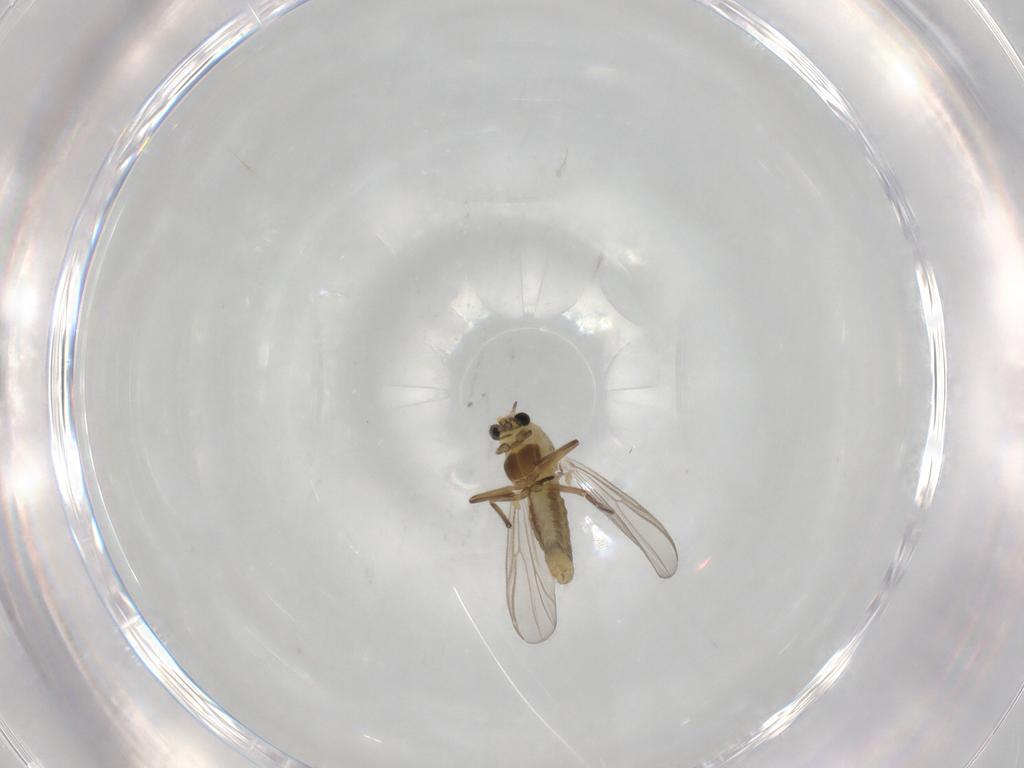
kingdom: Animalia
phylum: Arthropoda
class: Insecta
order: Diptera
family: Chironomidae
